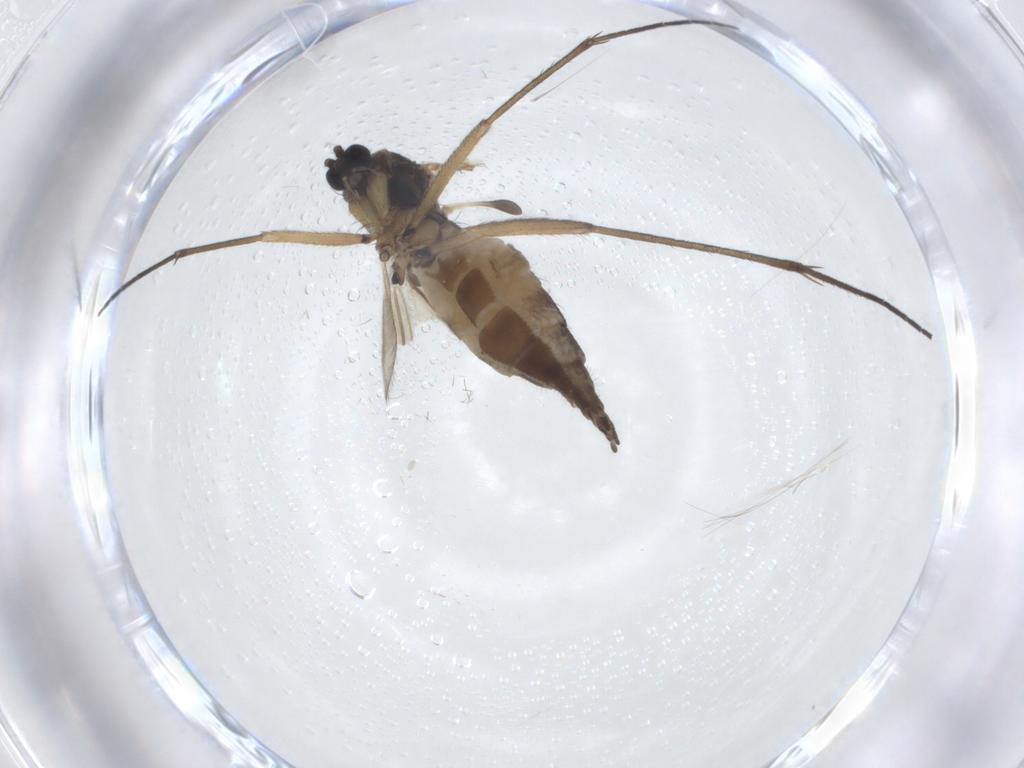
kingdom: Animalia
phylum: Arthropoda
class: Insecta
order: Diptera
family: Sciaridae
